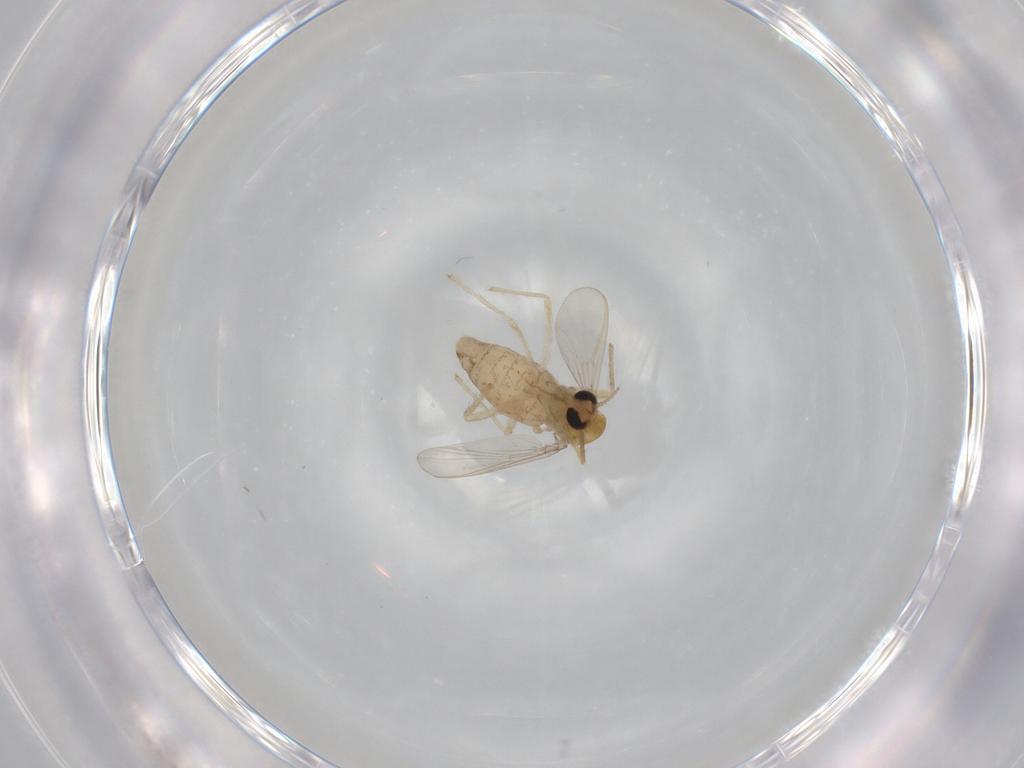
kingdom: Animalia
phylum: Arthropoda
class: Insecta
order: Diptera
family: Chironomidae
